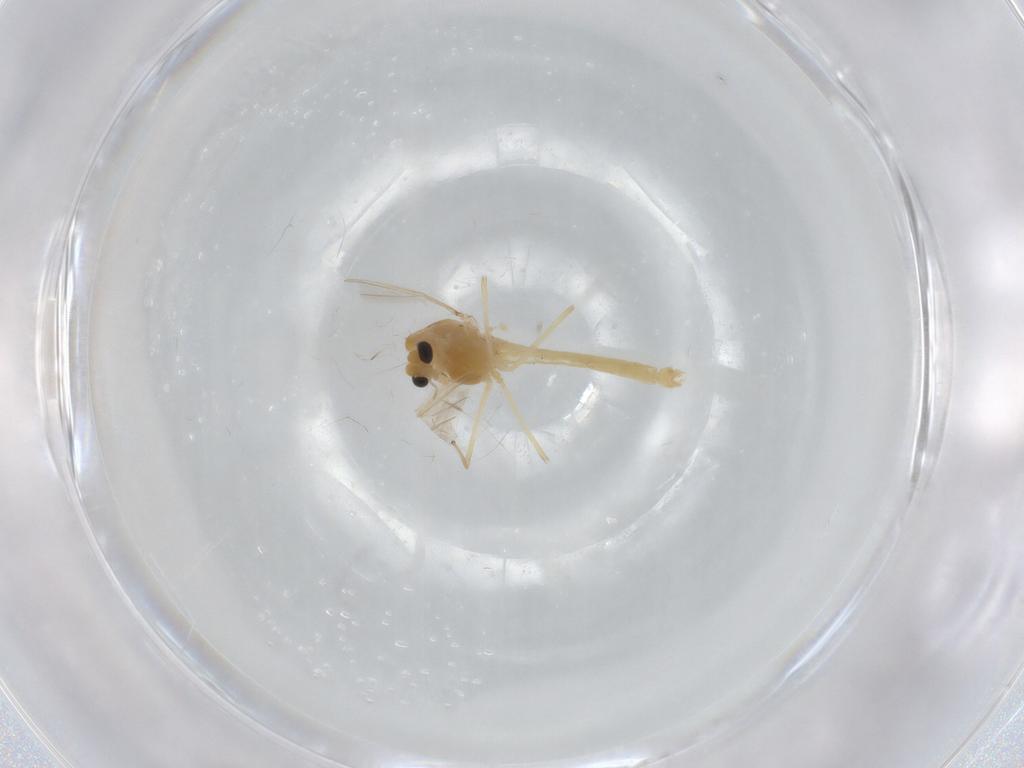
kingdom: Animalia
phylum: Arthropoda
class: Insecta
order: Diptera
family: Chironomidae
